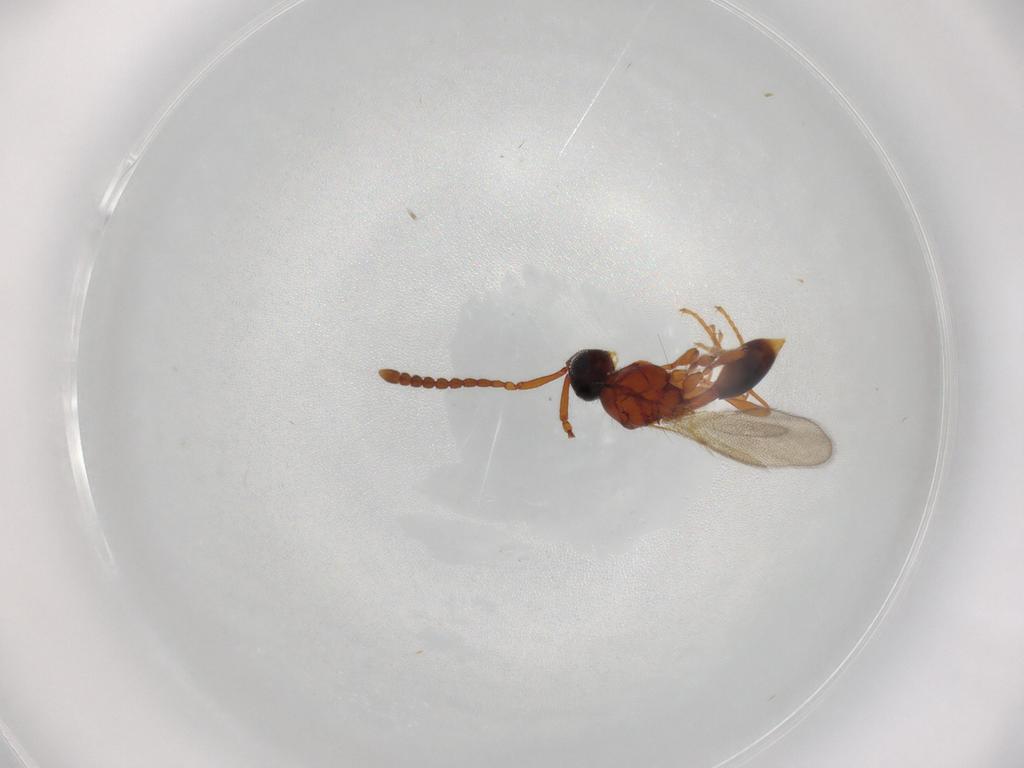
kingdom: Animalia
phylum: Arthropoda
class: Insecta
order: Hymenoptera
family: Diapriidae
